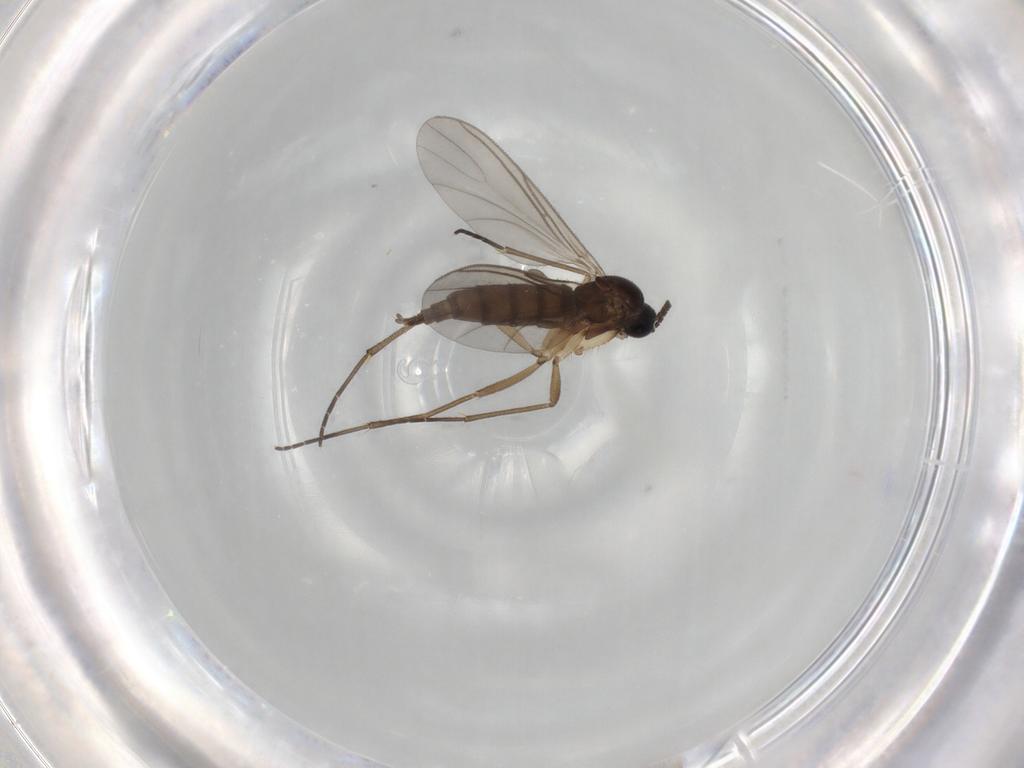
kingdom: Animalia
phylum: Arthropoda
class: Insecta
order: Diptera
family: Sciaridae
